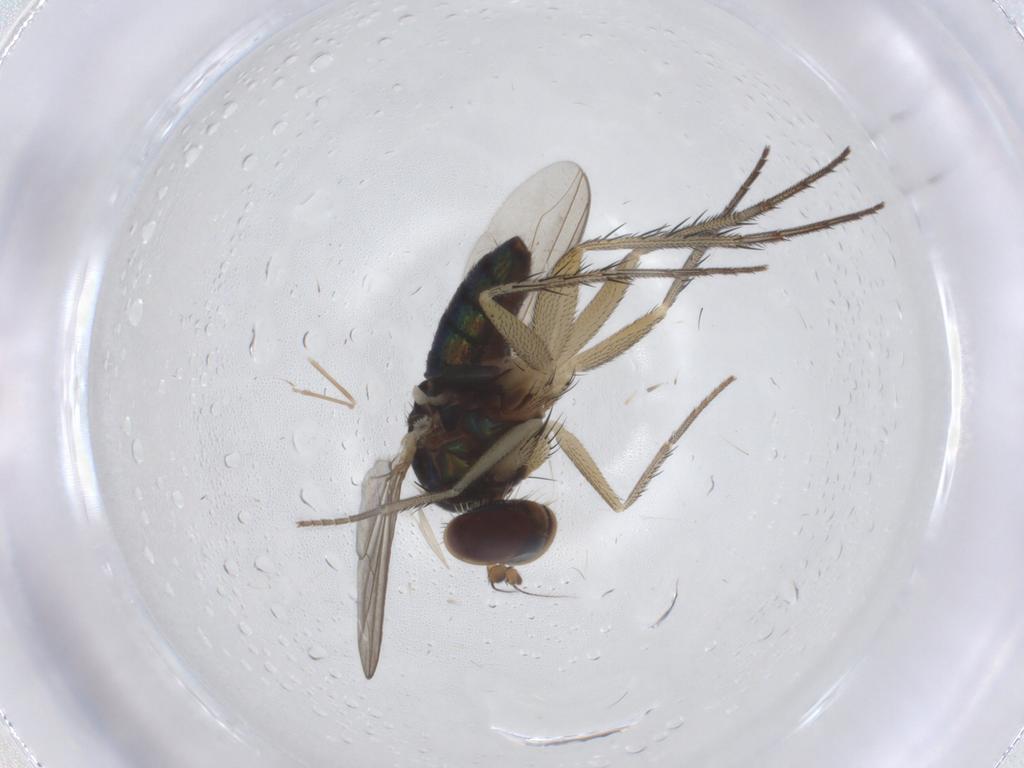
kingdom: Animalia
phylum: Arthropoda
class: Insecta
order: Diptera
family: Dolichopodidae
